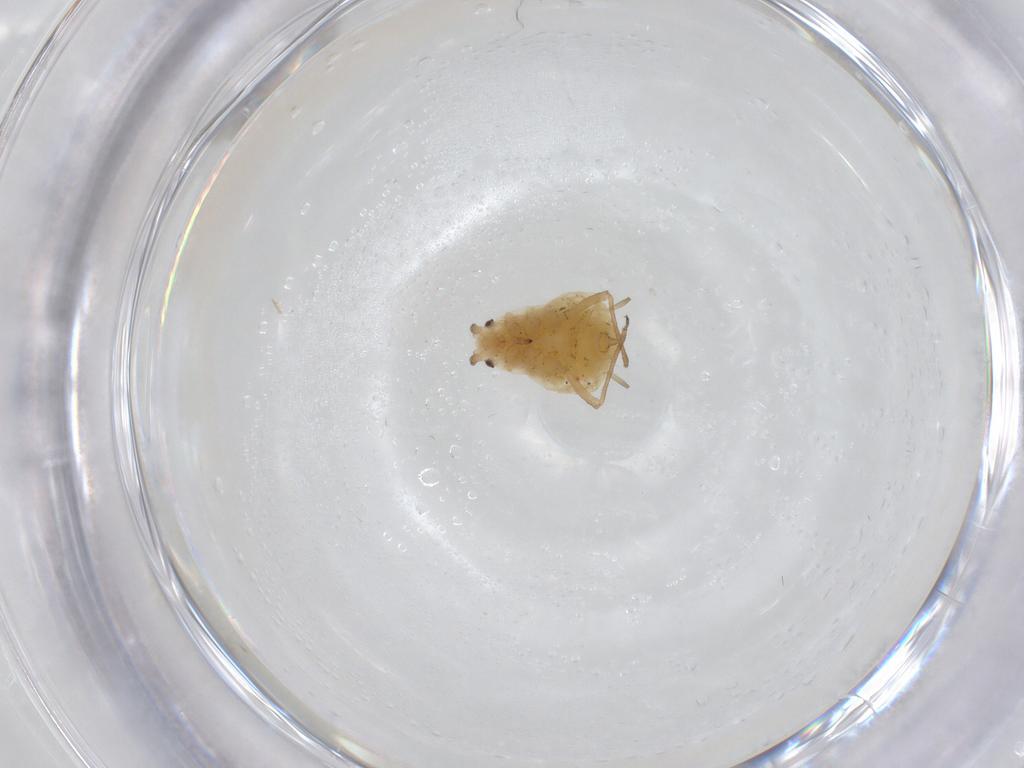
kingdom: Animalia
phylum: Arthropoda
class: Insecta
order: Hemiptera
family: Aphididae
